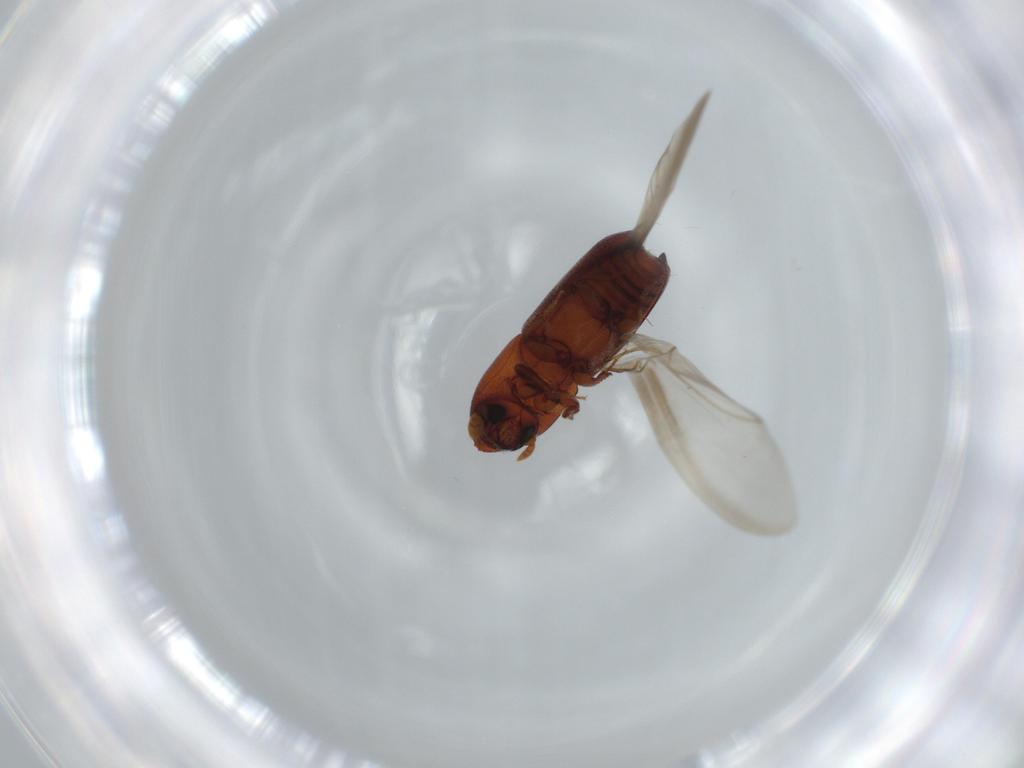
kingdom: Animalia
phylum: Arthropoda
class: Insecta
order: Coleoptera
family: Curculionidae
